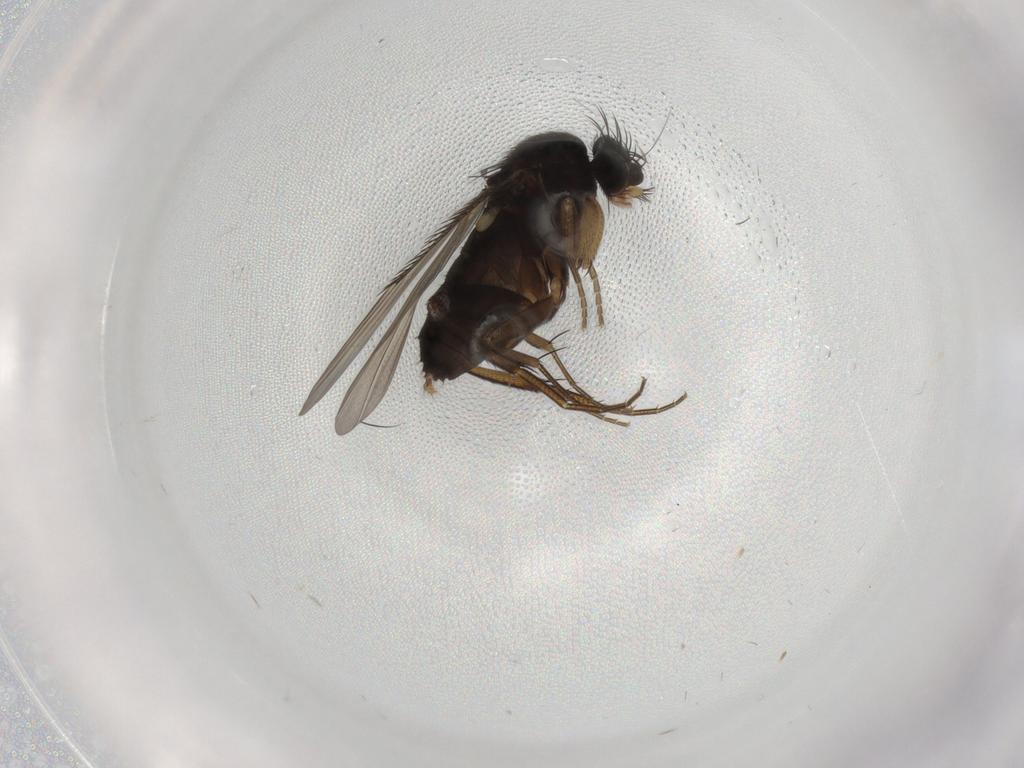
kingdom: Animalia
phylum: Arthropoda
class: Insecta
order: Diptera
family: Phoridae
